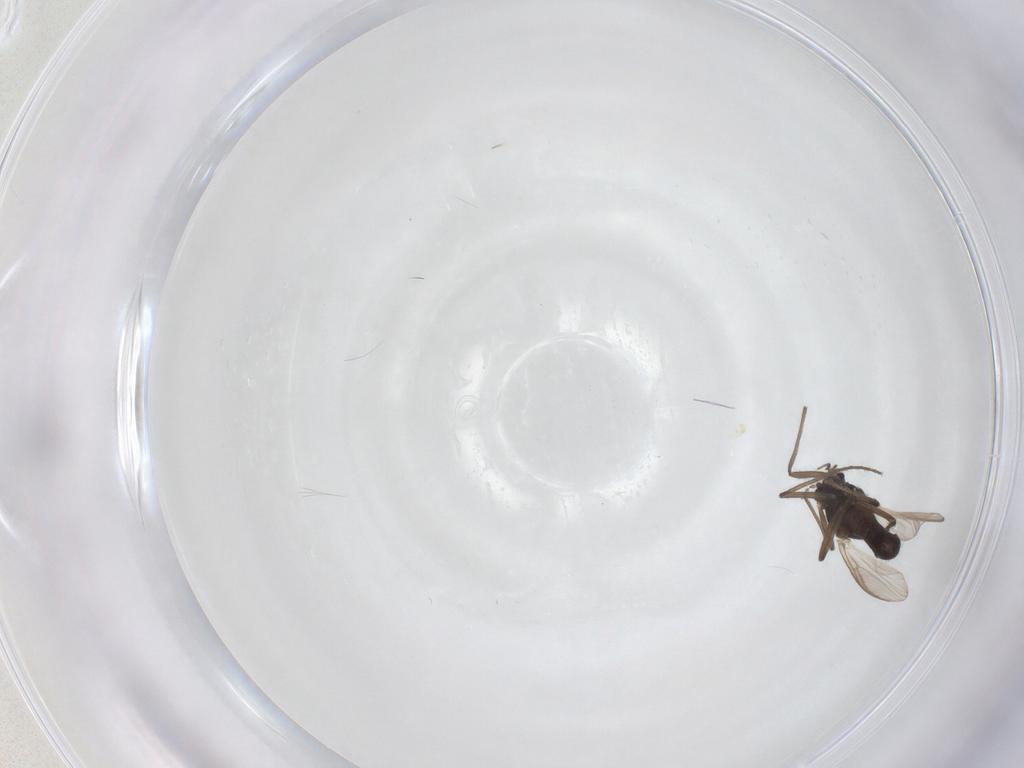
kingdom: Animalia
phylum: Arthropoda
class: Insecta
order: Diptera
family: Chironomidae
